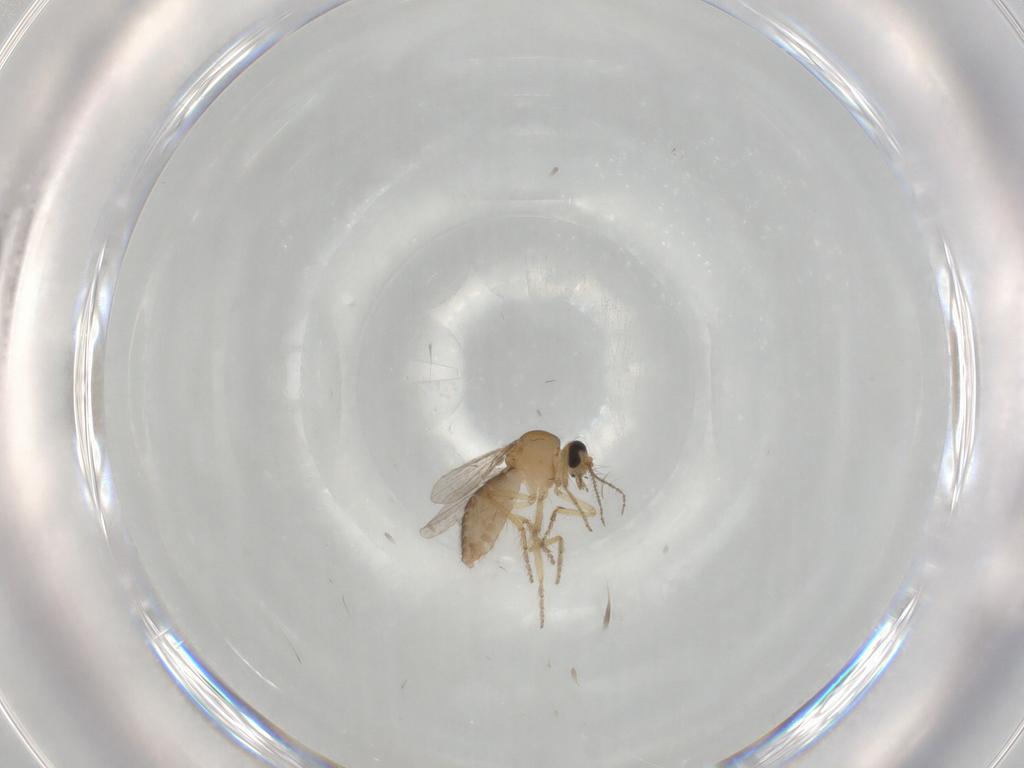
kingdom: Animalia
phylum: Arthropoda
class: Insecta
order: Diptera
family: Ceratopogonidae
